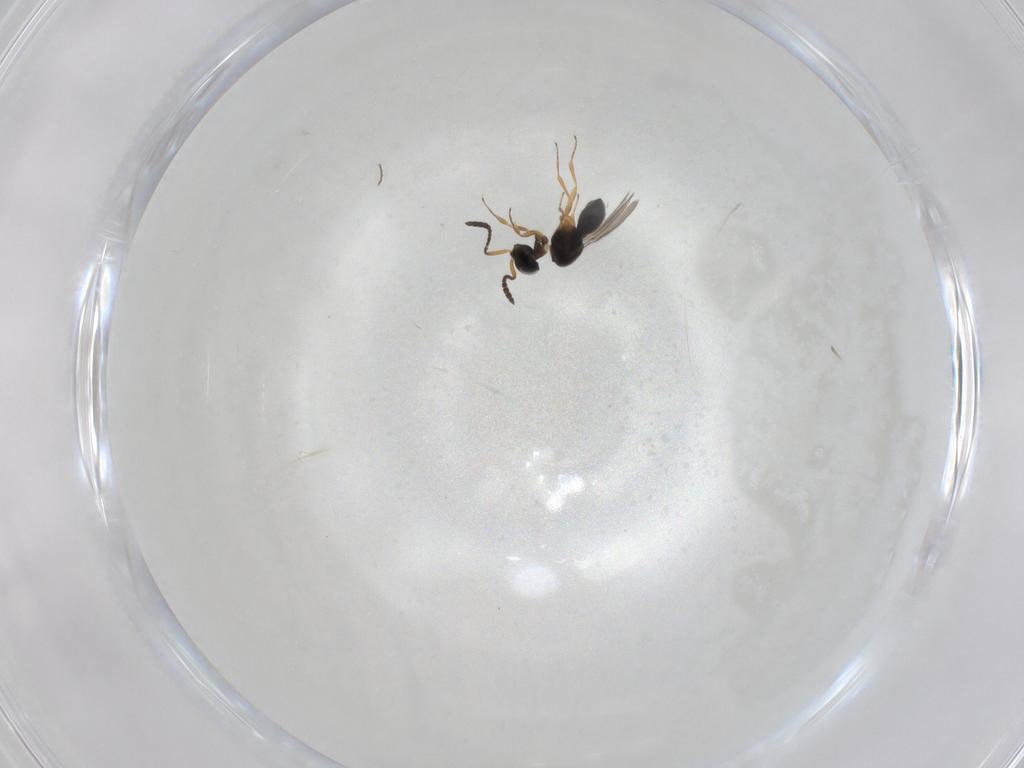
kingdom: Animalia
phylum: Arthropoda
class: Insecta
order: Hymenoptera
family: Scelionidae
